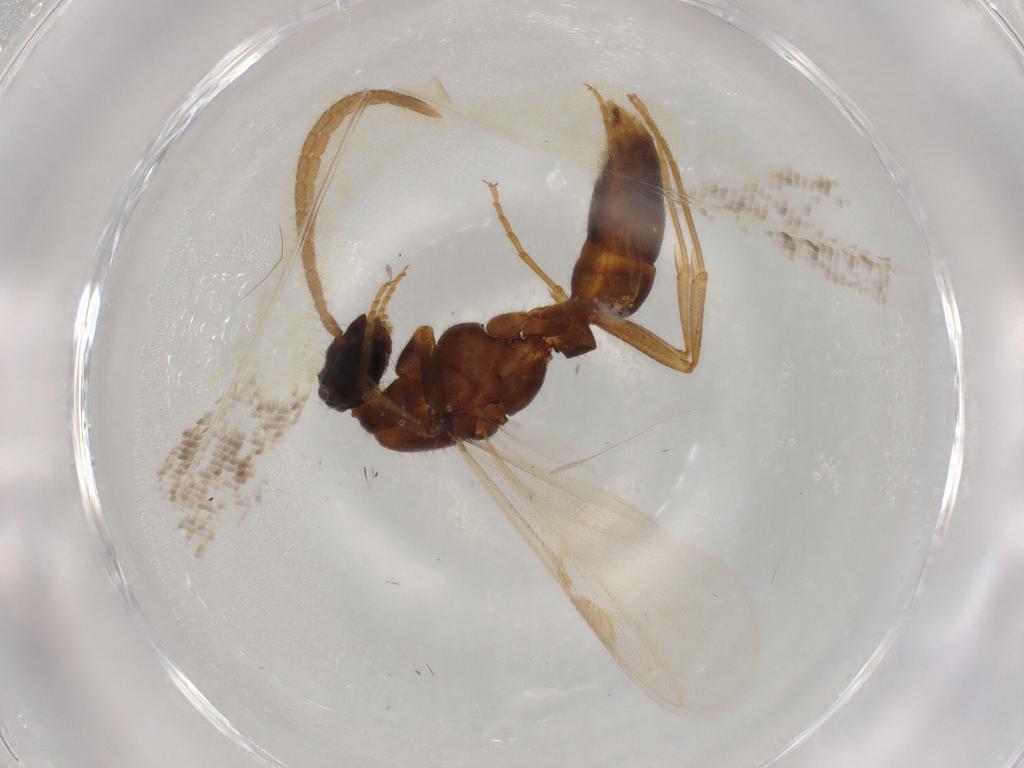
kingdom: Animalia
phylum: Arthropoda
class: Insecta
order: Hymenoptera
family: Formicidae
